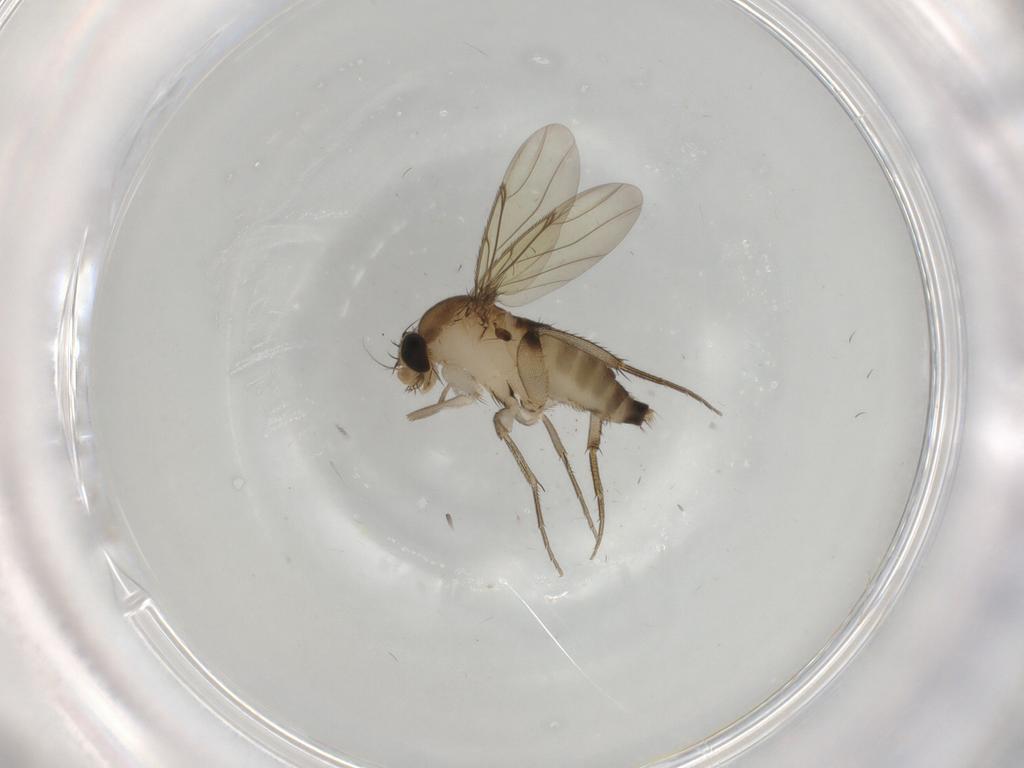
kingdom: Animalia
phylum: Arthropoda
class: Insecta
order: Diptera
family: Phoridae
